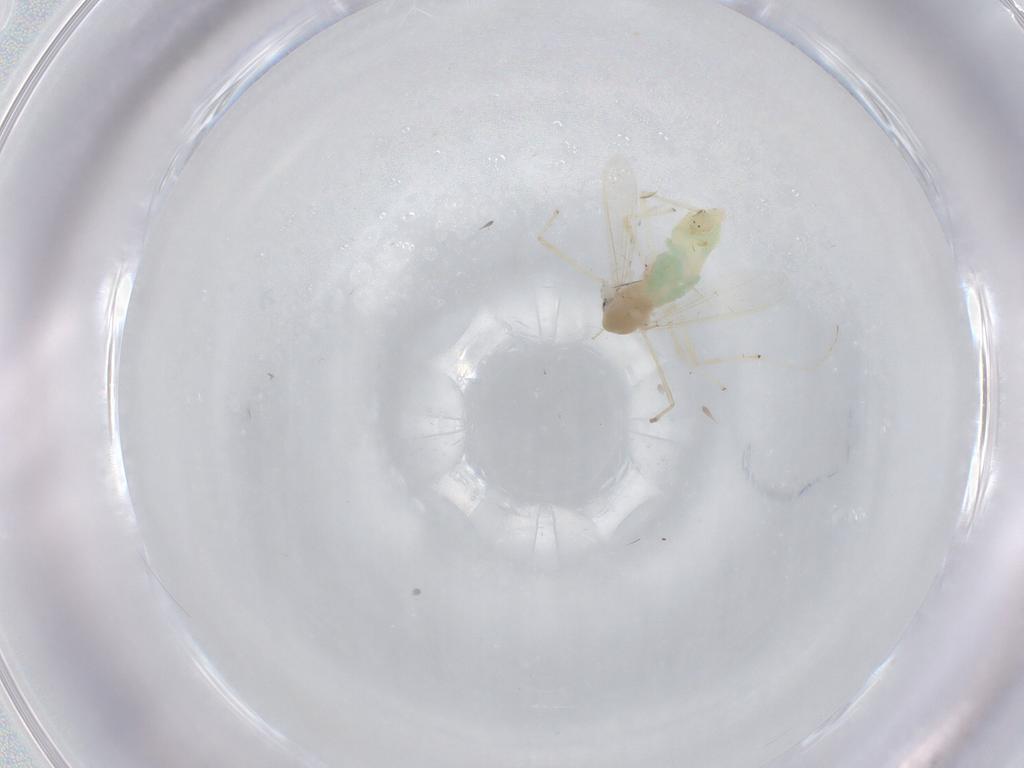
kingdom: Animalia
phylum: Arthropoda
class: Insecta
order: Diptera
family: Chironomidae
